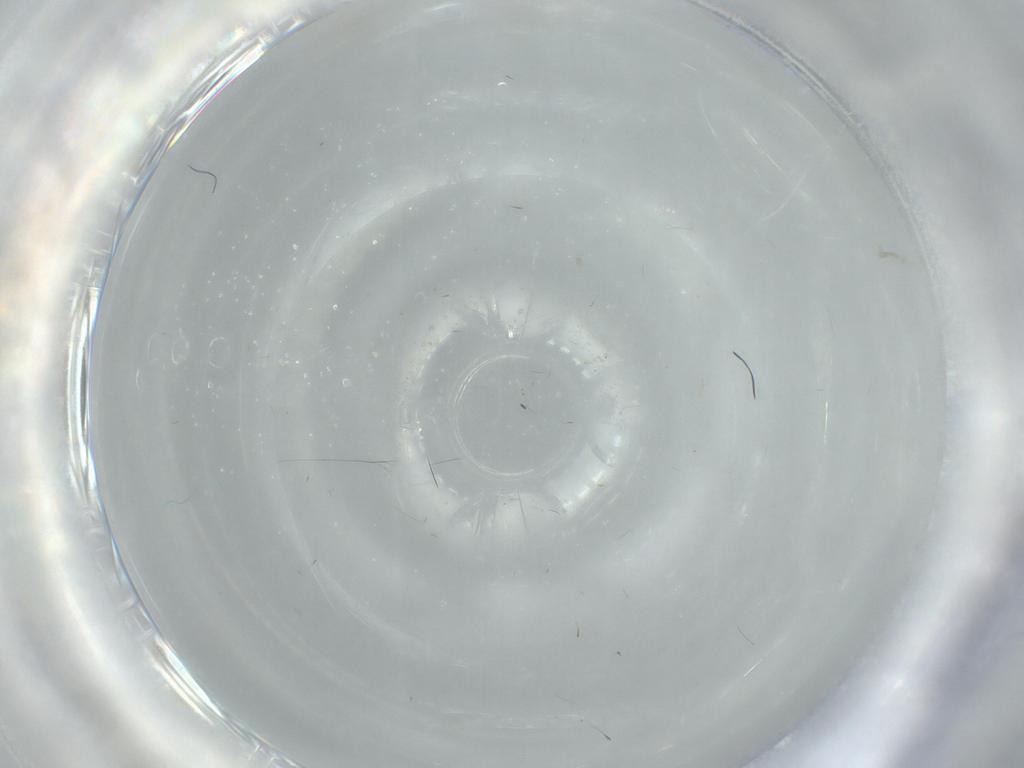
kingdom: Animalia
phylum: Arthropoda
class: Insecta
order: Hymenoptera
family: Encyrtidae
